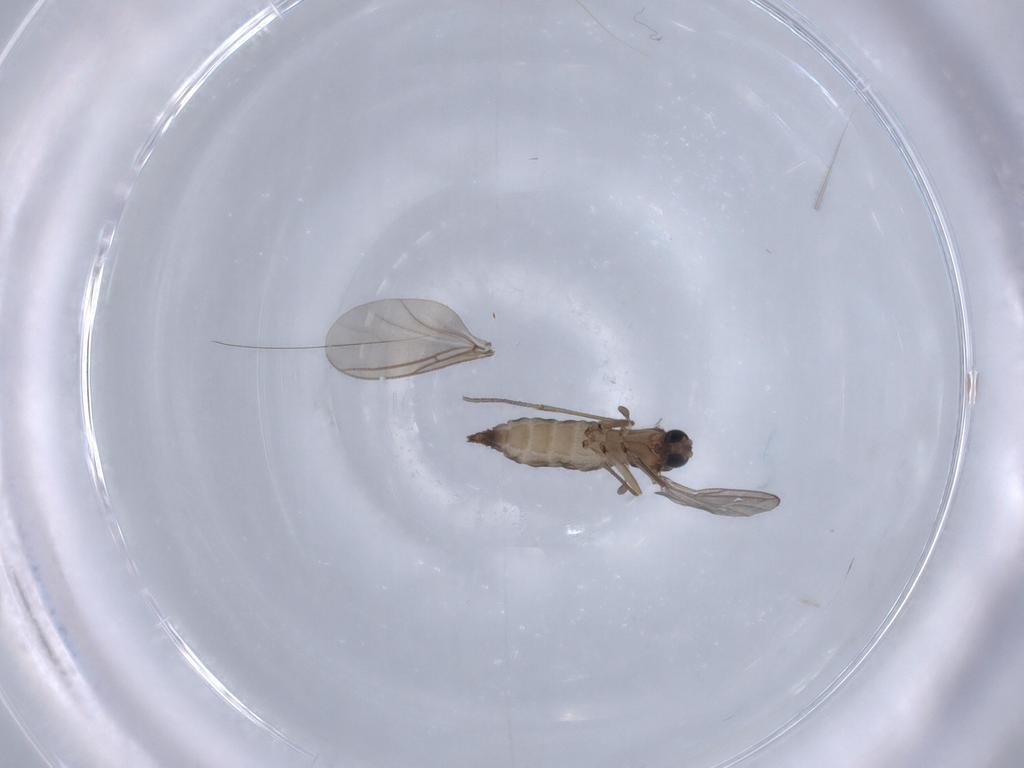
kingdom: Animalia
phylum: Arthropoda
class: Insecta
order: Diptera
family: Sciaridae
